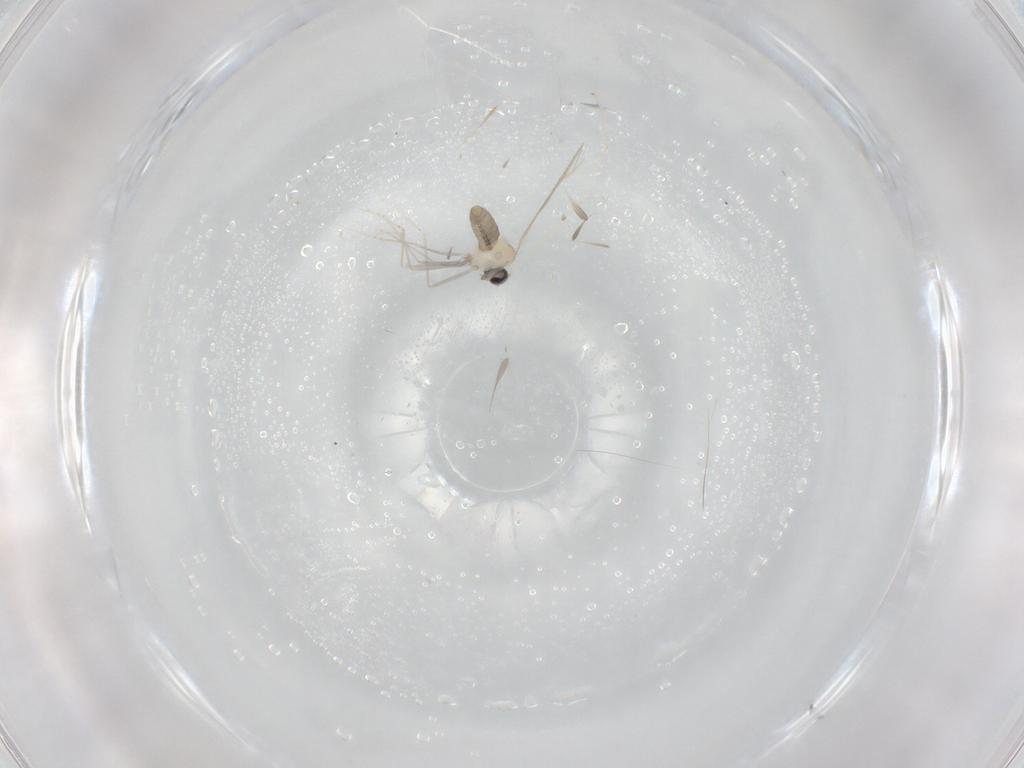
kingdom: Animalia
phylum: Arthropoda
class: Insecta
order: Diptera
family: Cecidomyiidae
